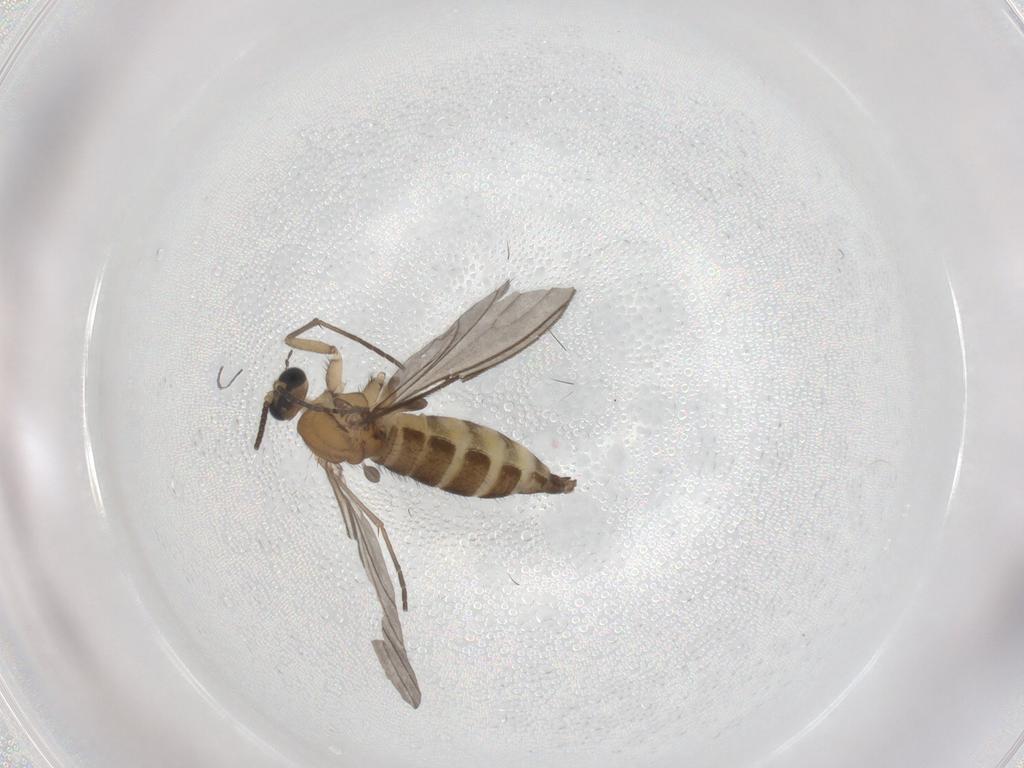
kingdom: Animalia
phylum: Arthropoda
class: Insecta
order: Diptera
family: Sciaridae
